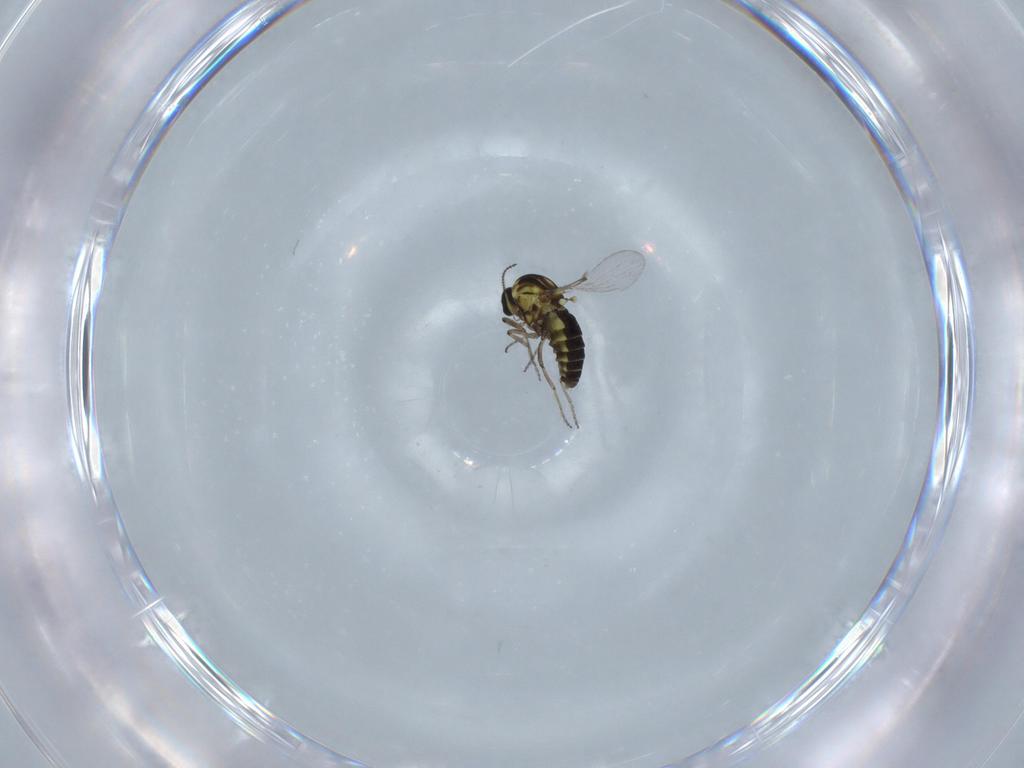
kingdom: Animalia
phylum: Arthropoda
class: Insecta
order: Diptera
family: Ceratopogonidae
